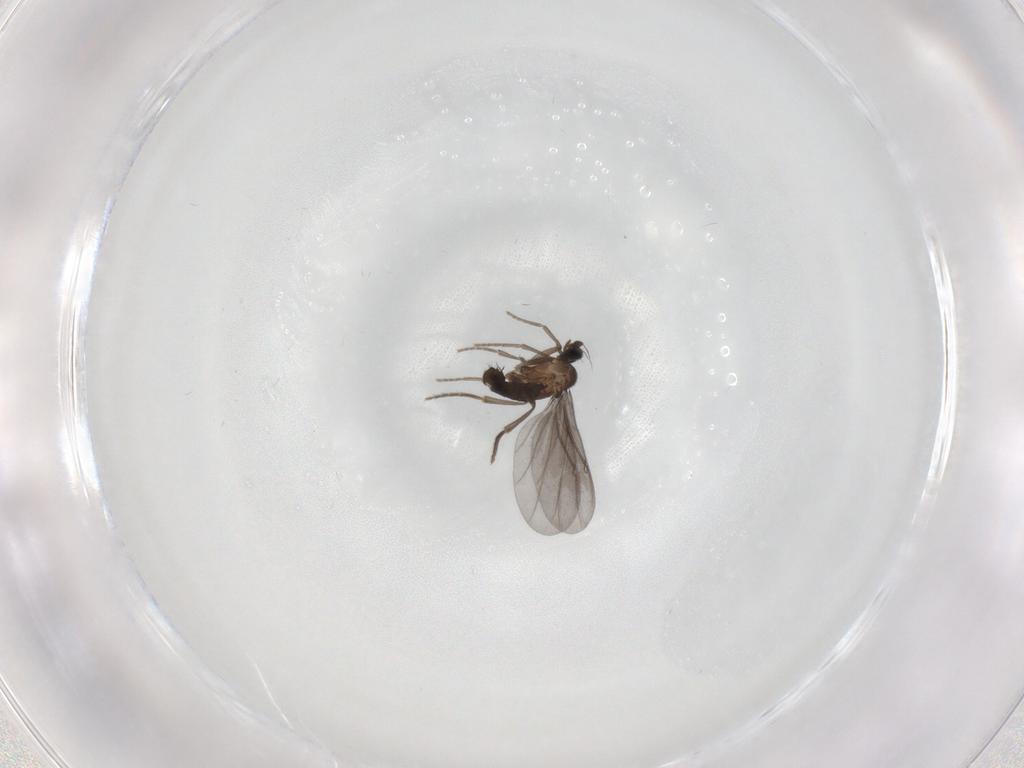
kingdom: Animalia
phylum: Arthropoda
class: Insecta
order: Diptera
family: Phoridae
